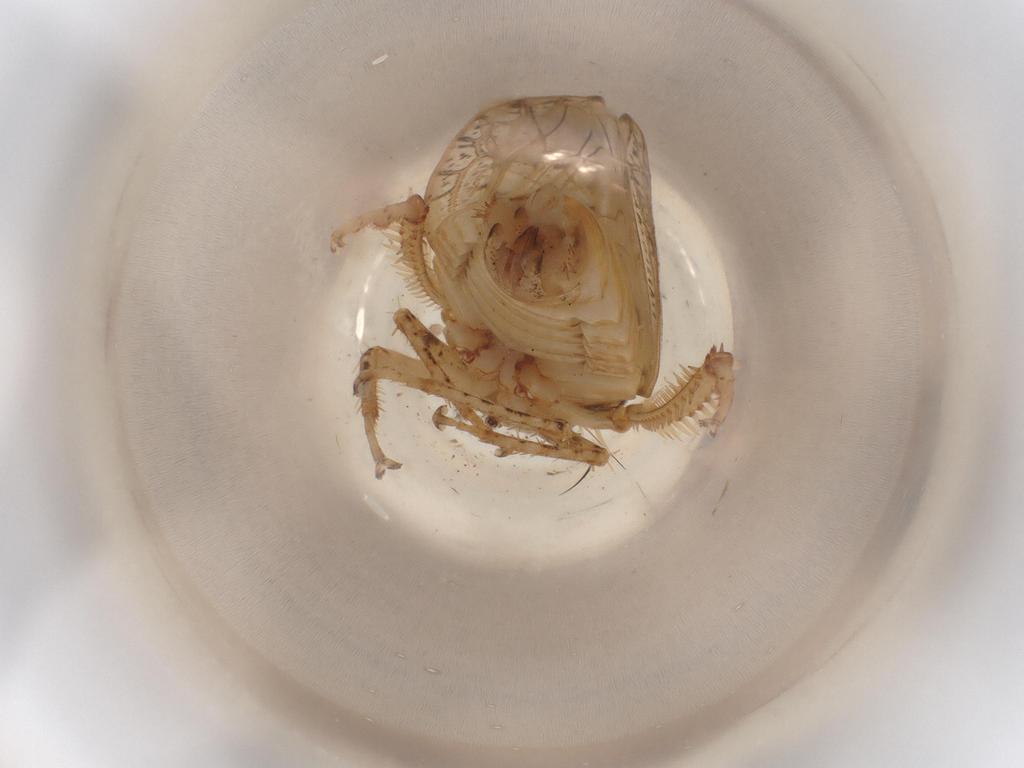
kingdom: Animalia
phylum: Arthropoda
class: Insecta
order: Hemiptera
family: Cicadellidae
